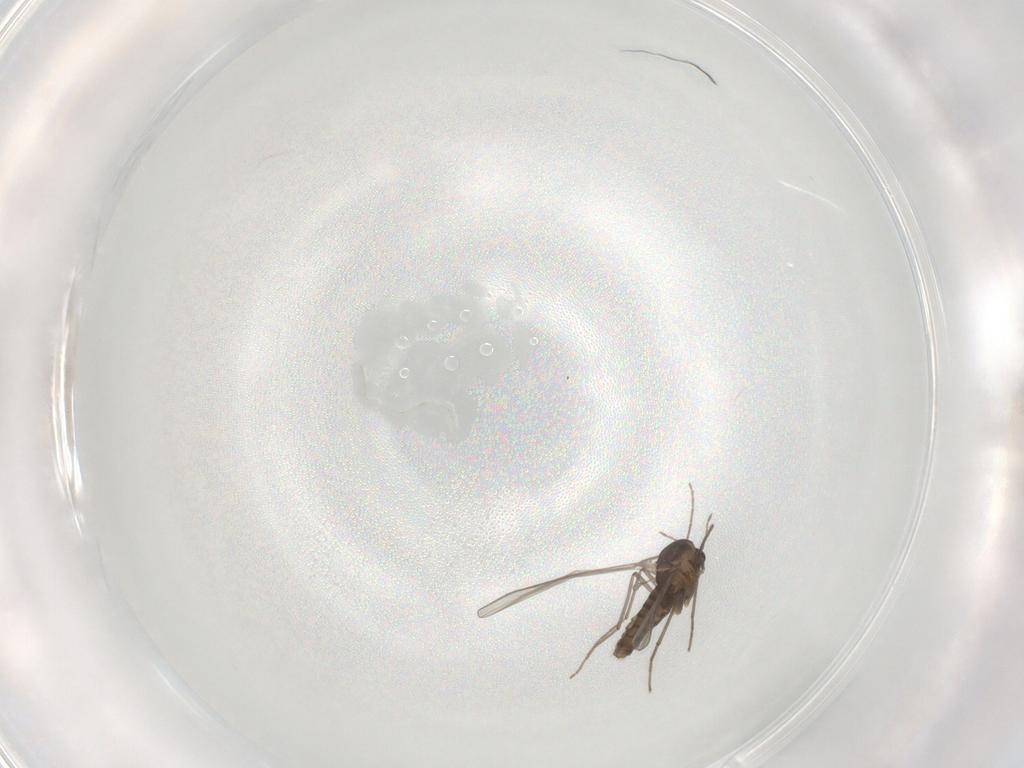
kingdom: Animalia
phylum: Arthropoda
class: Insecta
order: Diptera
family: Chironomidae
